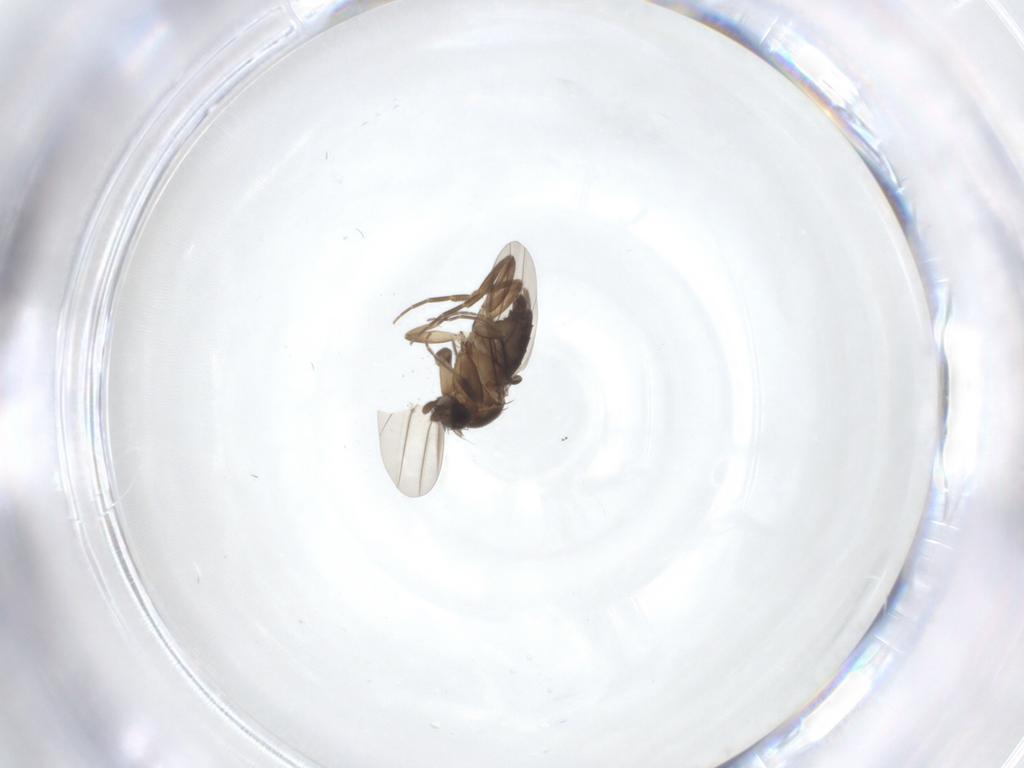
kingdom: Animalia
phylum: Arthropoda
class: Insecta
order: Diptera
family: Phoridae
